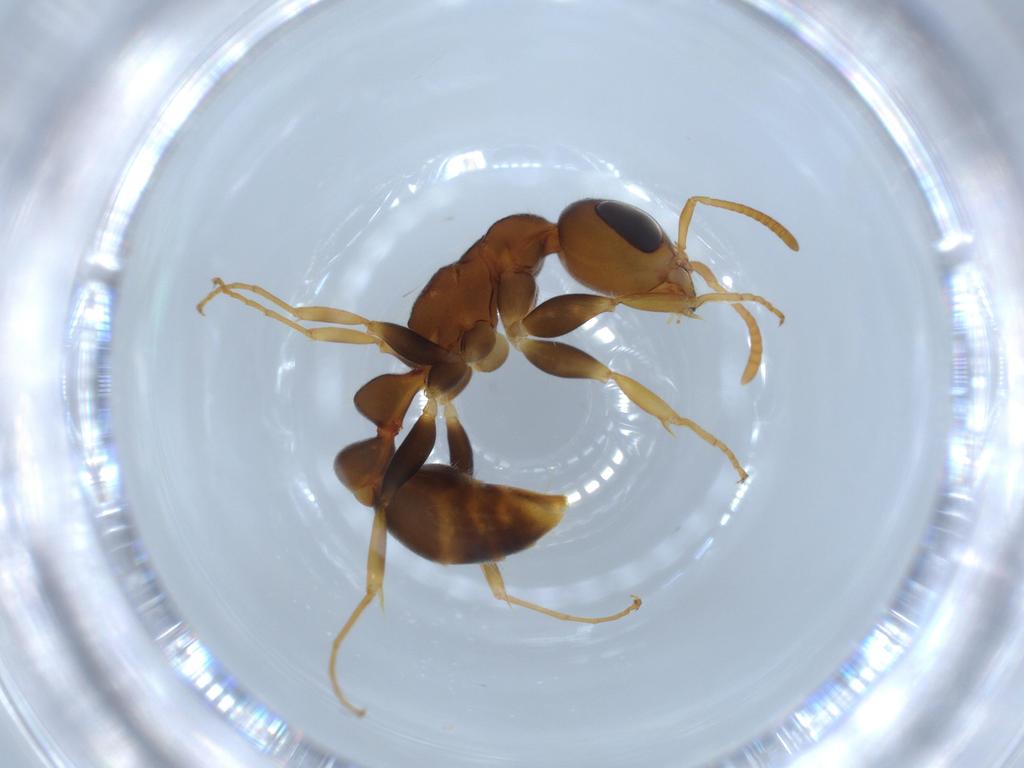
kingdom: Animalia
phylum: Arthropoda
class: Insecta
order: Hymenoptera
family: Formicidae
